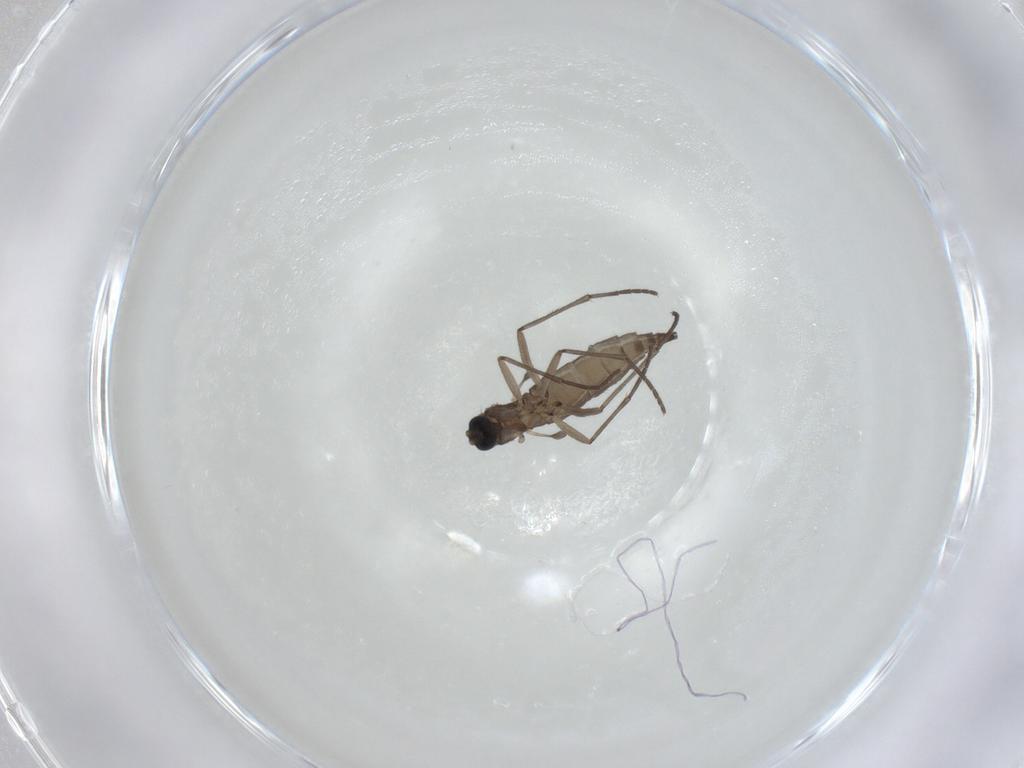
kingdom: Animalia
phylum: Arthropoda
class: Insecta
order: Diptera
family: Sciaridae
